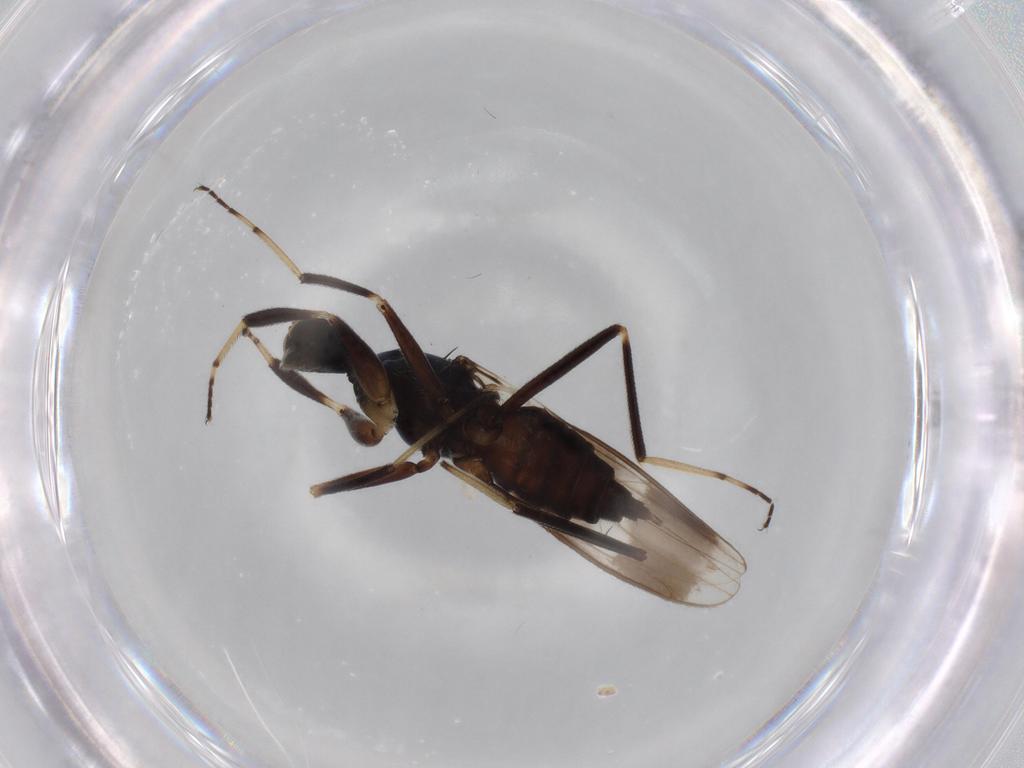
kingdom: Animalia
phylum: Arthropoda
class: Insecta
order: Diptera
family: Hybotidae
